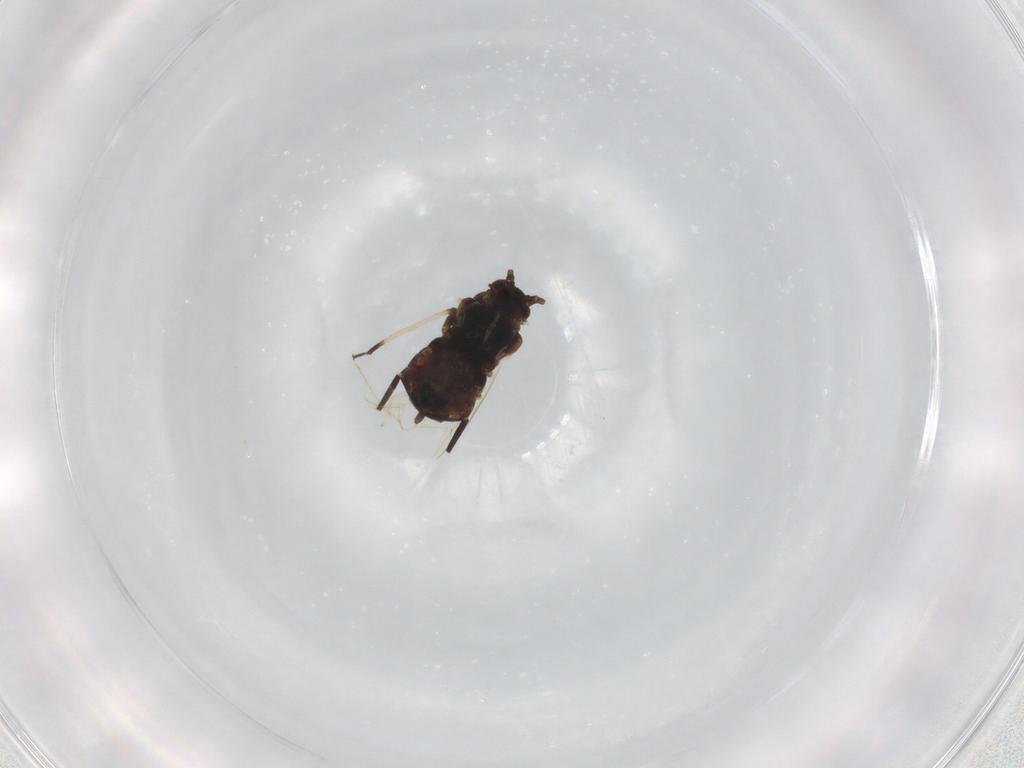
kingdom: Animalia
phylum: Arthropoda
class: Insecta
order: Hemiptera
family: Aphididae
